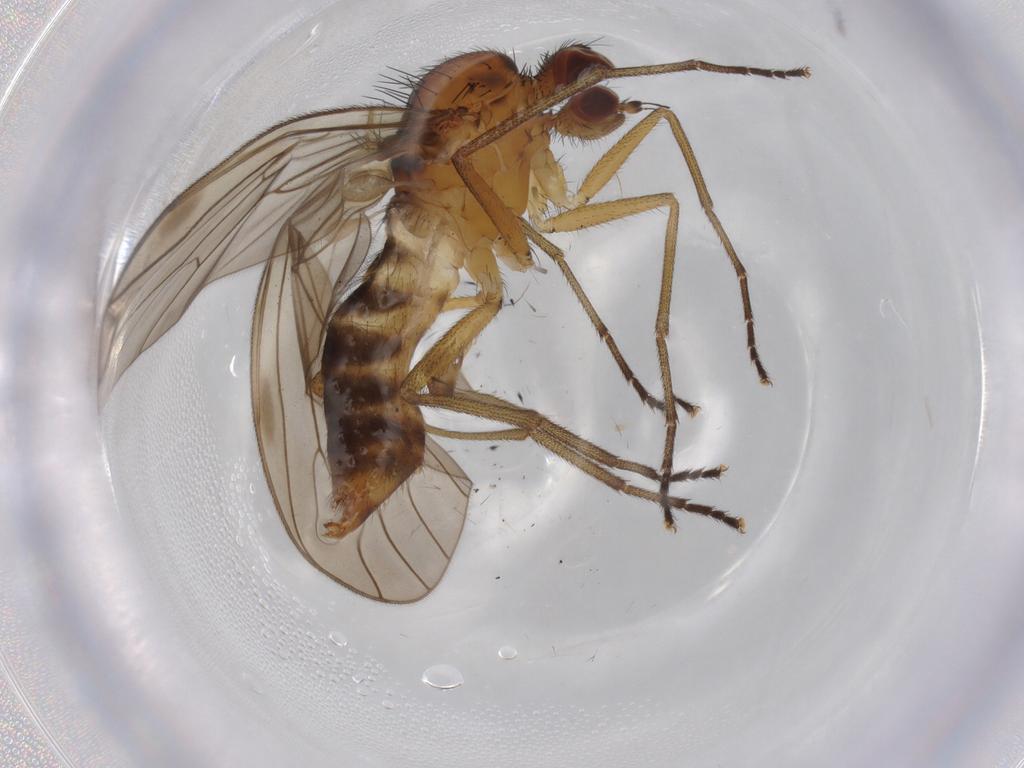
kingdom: Animalia
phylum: Arthropoda
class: Insecta
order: Diptera
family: Brachystomatidae
